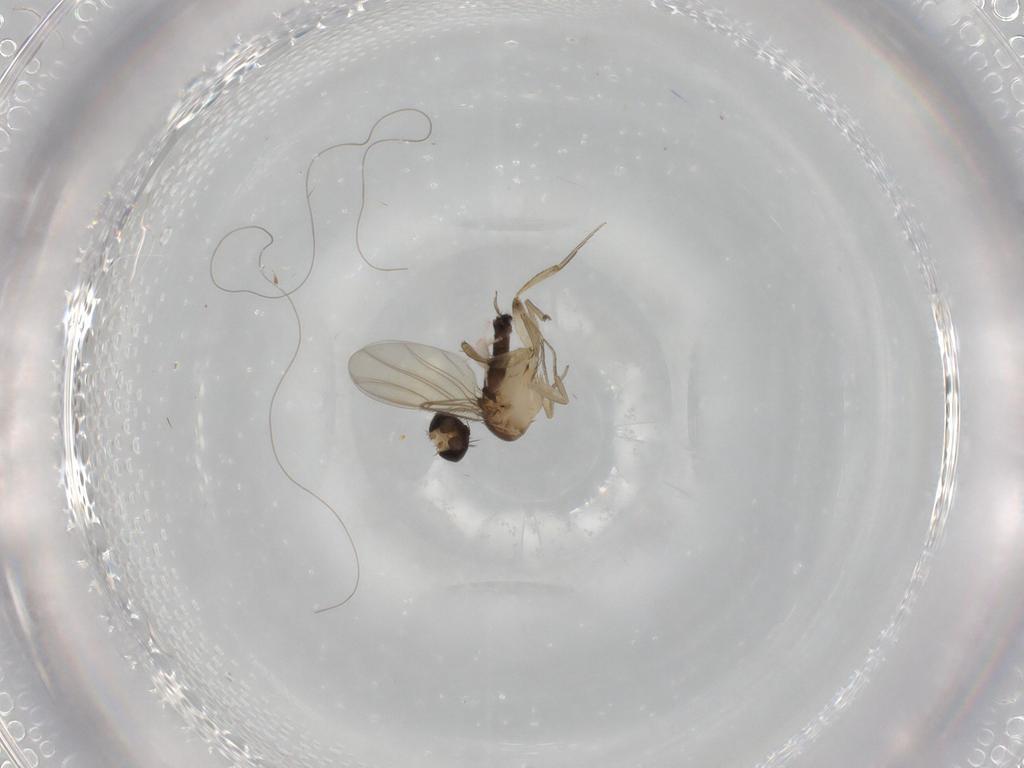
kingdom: Animalia
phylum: Arthropoda
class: Insecta
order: Diptera
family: Phoridae
